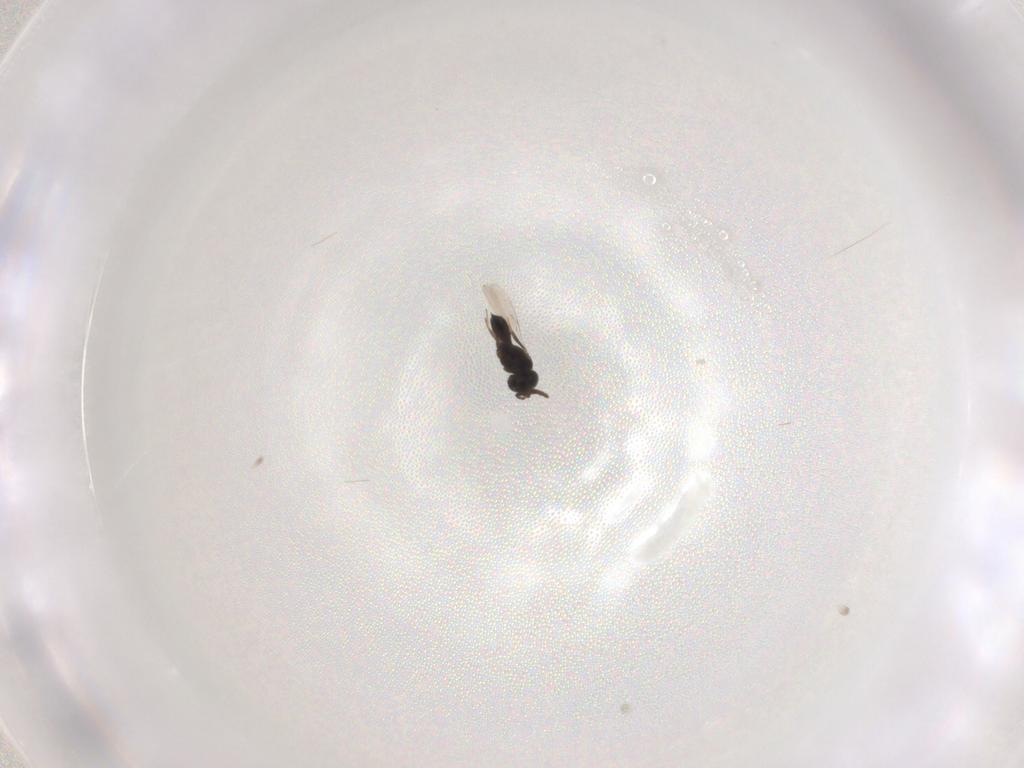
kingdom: Animalia
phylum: Arthropoda
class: Insecta
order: Hymenoptera
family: Scelionidae
